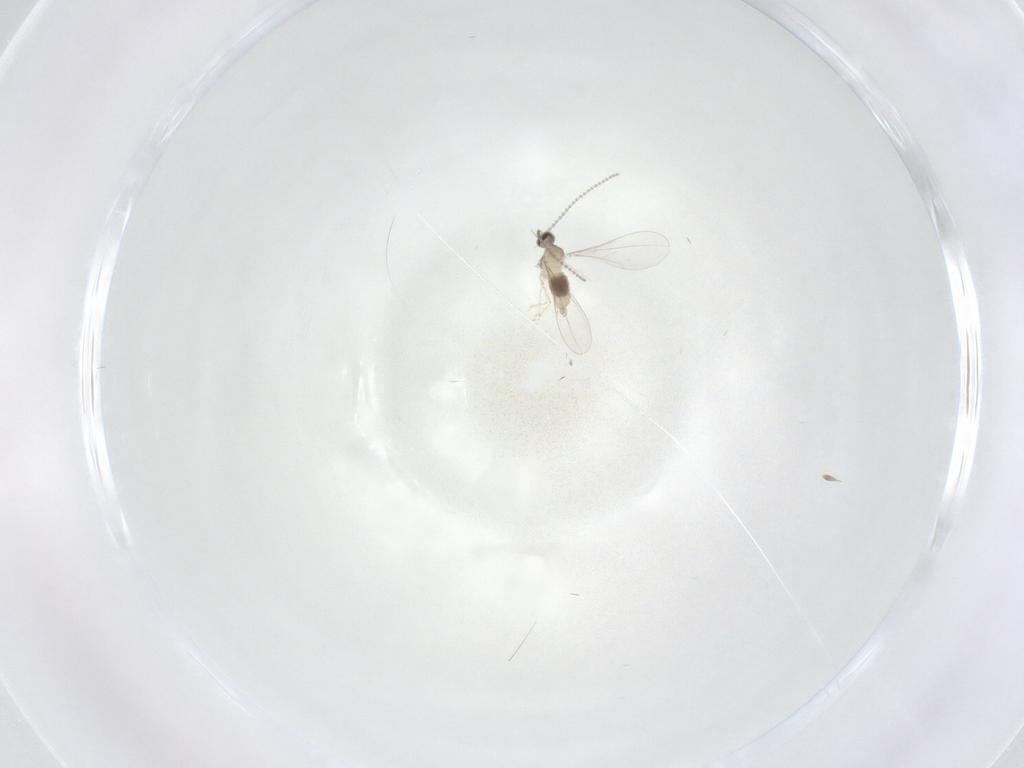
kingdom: Animalia
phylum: Arthropoda
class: Insecta
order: Diptera
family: Cecidomyiidae
